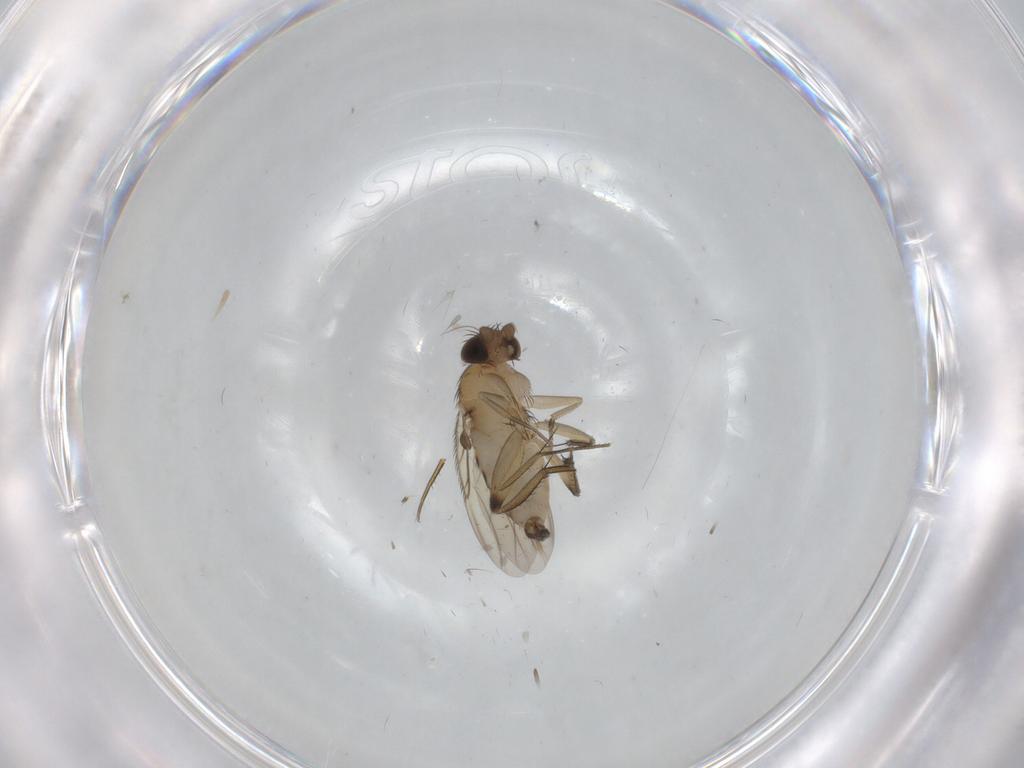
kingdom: Animalia
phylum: Arthropoda
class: Insecta
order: Diptera
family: Phoridae
